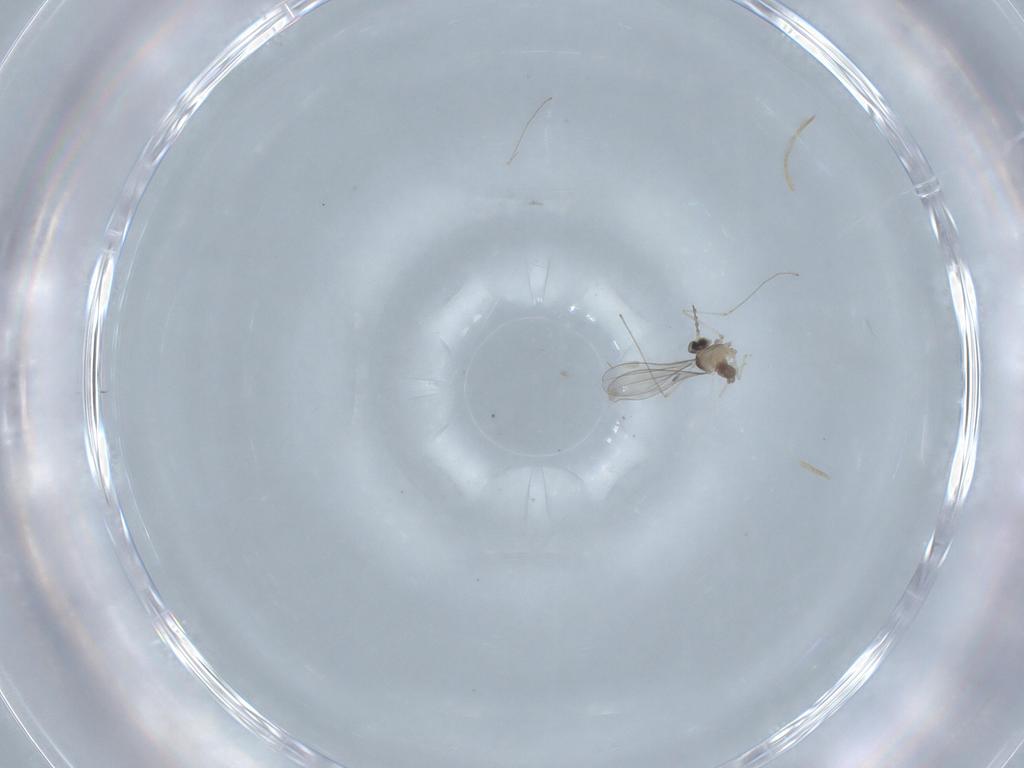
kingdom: Animalia
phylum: Arthropoda
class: Insecta
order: Diptera
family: Cecidomyiidae
